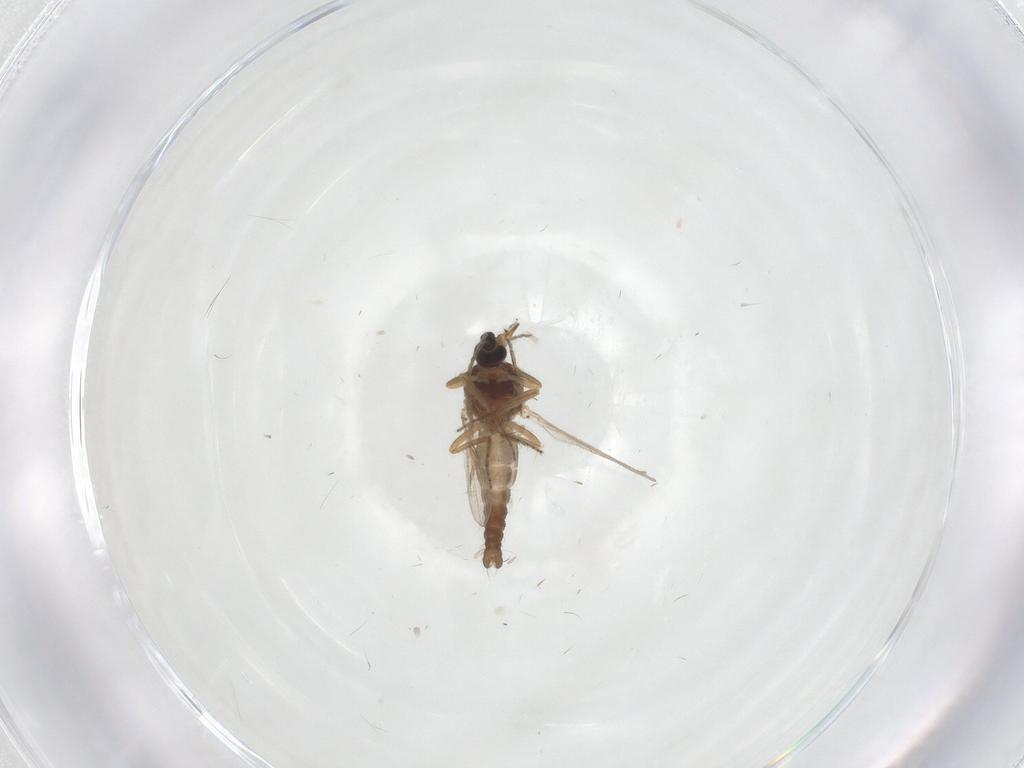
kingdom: Animalia
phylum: Arthropoda
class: Insecta
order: Diptera
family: Ceratopogonidae
